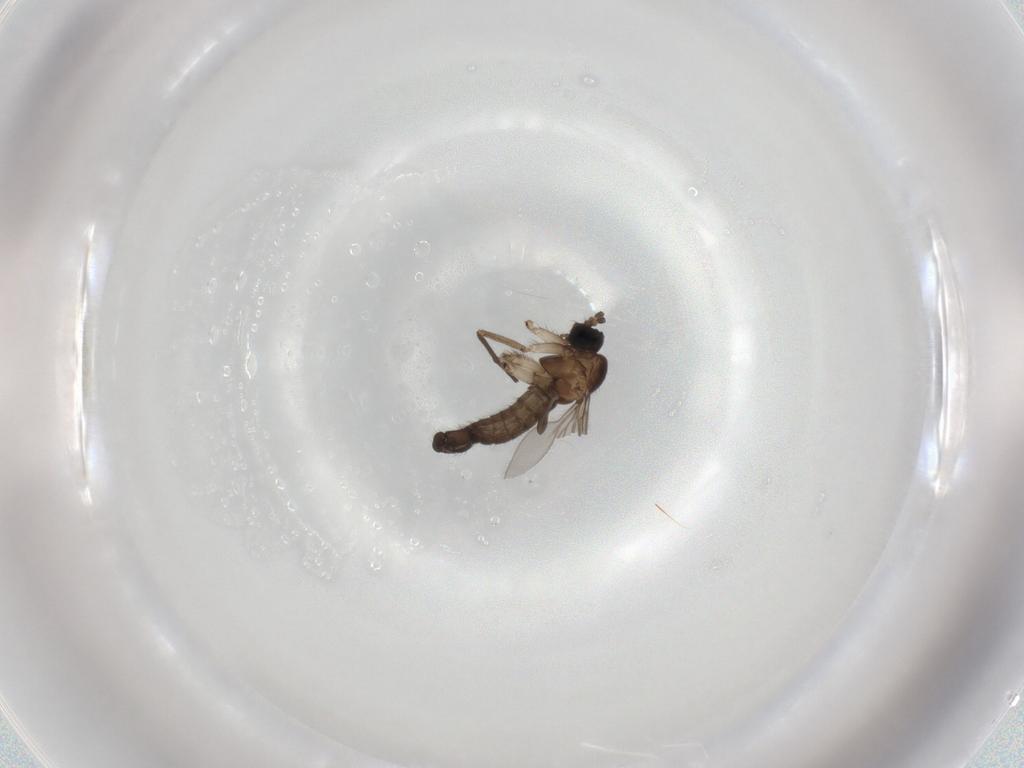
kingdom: Animalia
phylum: Arthropoda
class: Insecta
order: Diptera
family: Sciaridae
